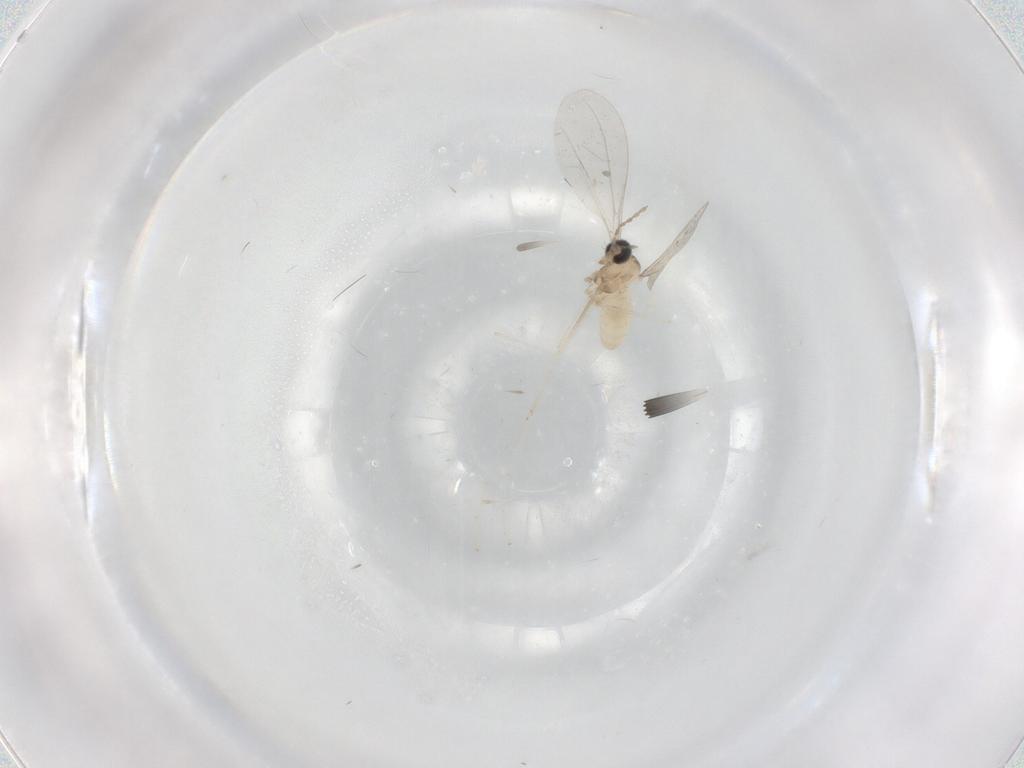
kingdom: Animalia
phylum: Arthropoda
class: Insecta
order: Diptera
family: Cecidomyiidae
